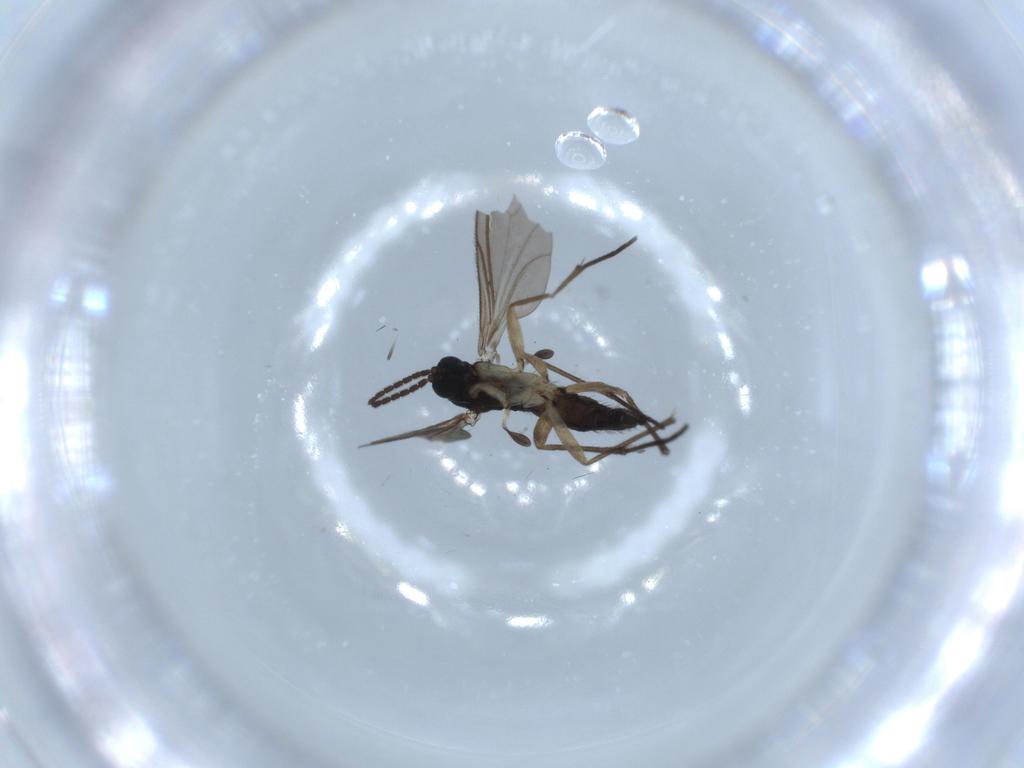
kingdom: Animalia
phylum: Arthropoda
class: Insecta
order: Diptera
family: Sciaridae
